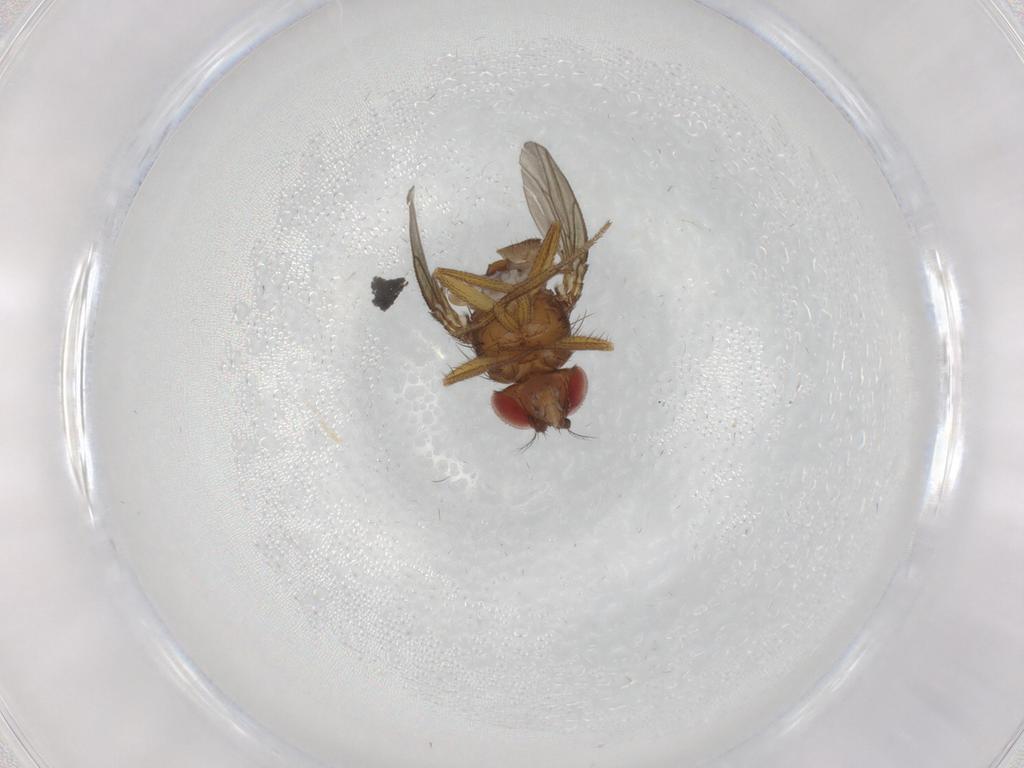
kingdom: Animalia
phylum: Arthropoda
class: Insecta
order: Diptera
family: Drosophilidae
